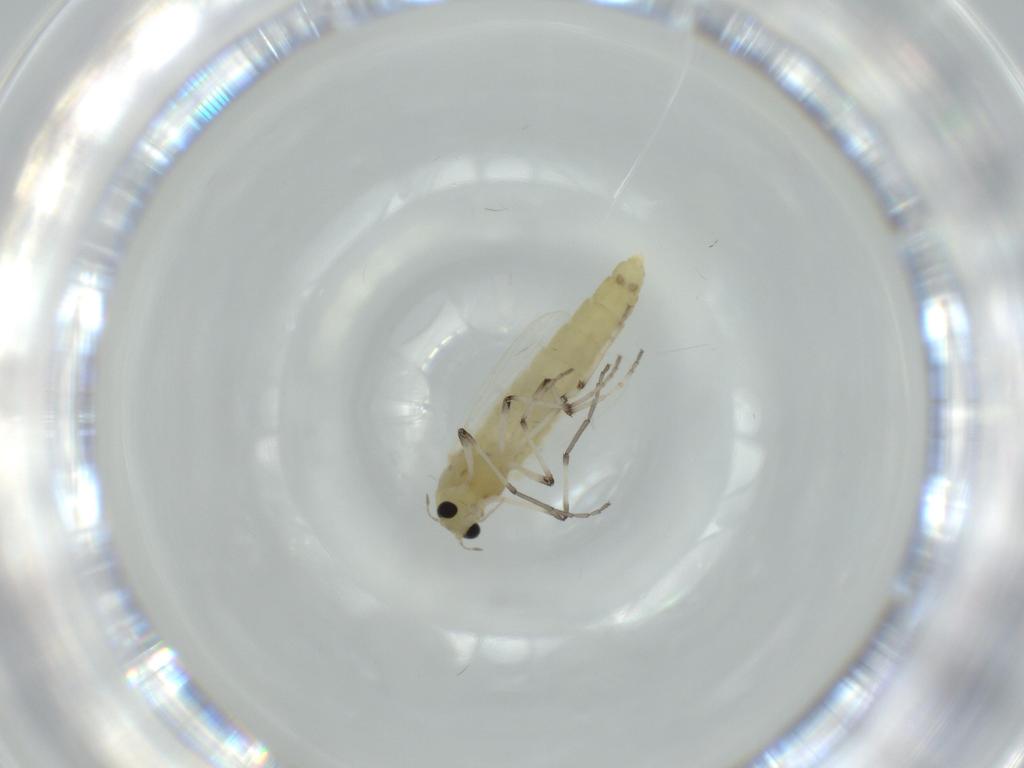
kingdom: Animalia
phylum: Arthropoda
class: Insecta
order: Diptera
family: Chironomidae
